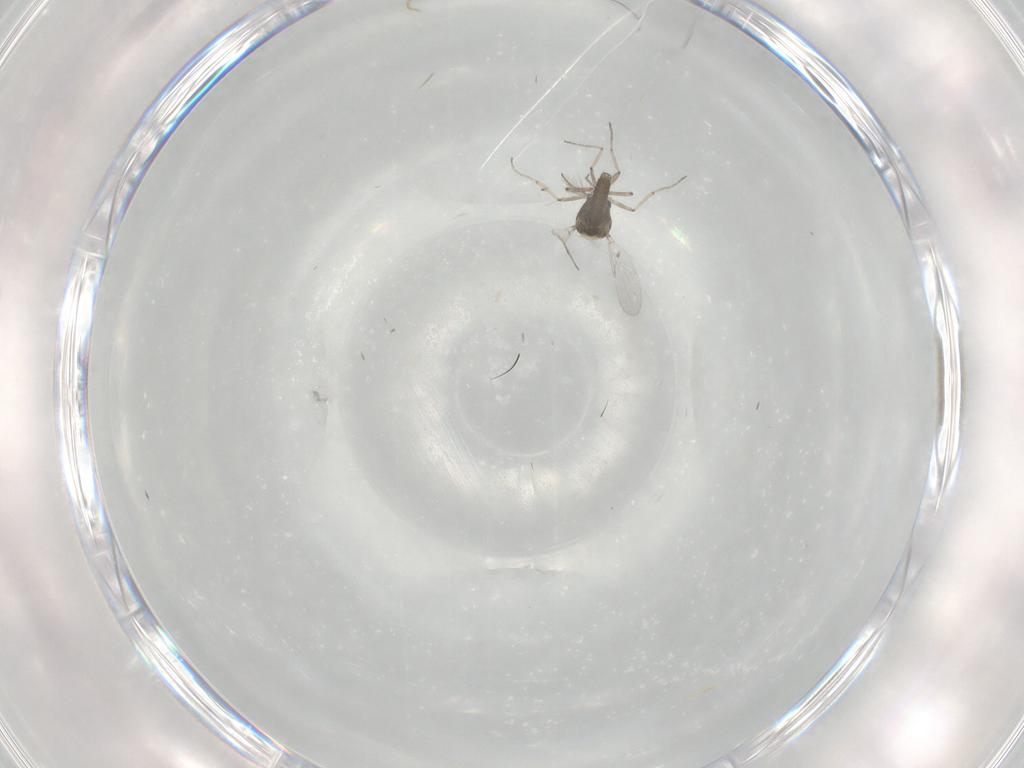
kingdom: Animalia
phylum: Arthropoda
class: Insecta
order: Diptera
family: Ceratopogonidae
